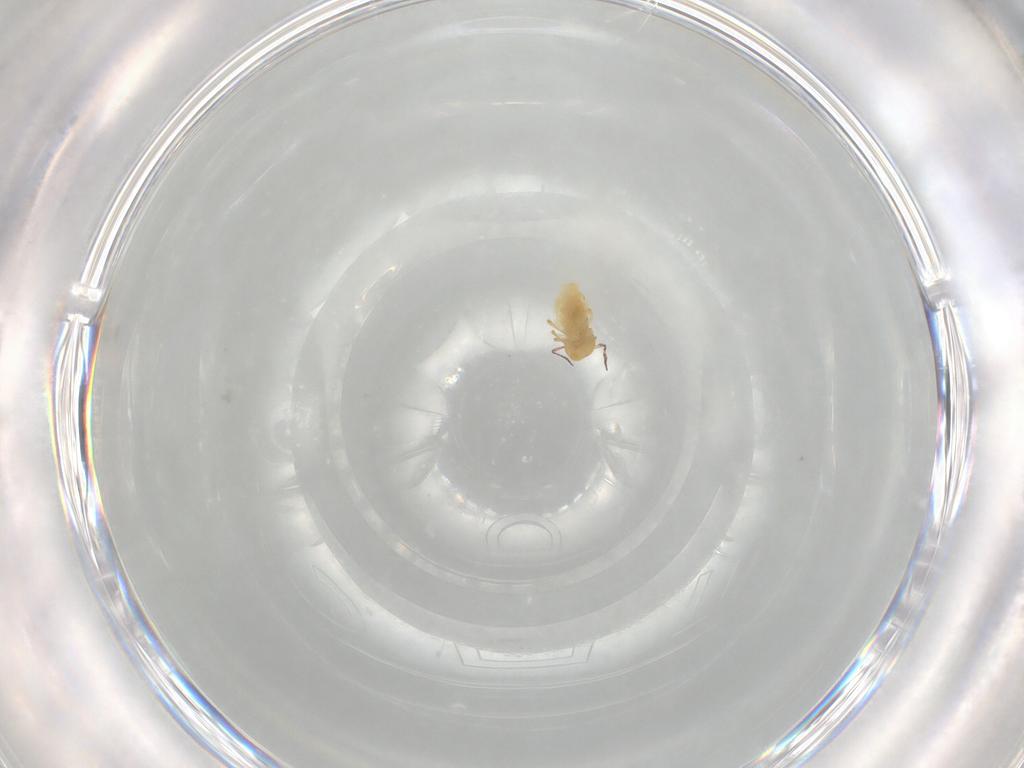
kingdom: Animalia
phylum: Arthropoda
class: Collembola
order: Symphypleona
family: Bourletiellidae
